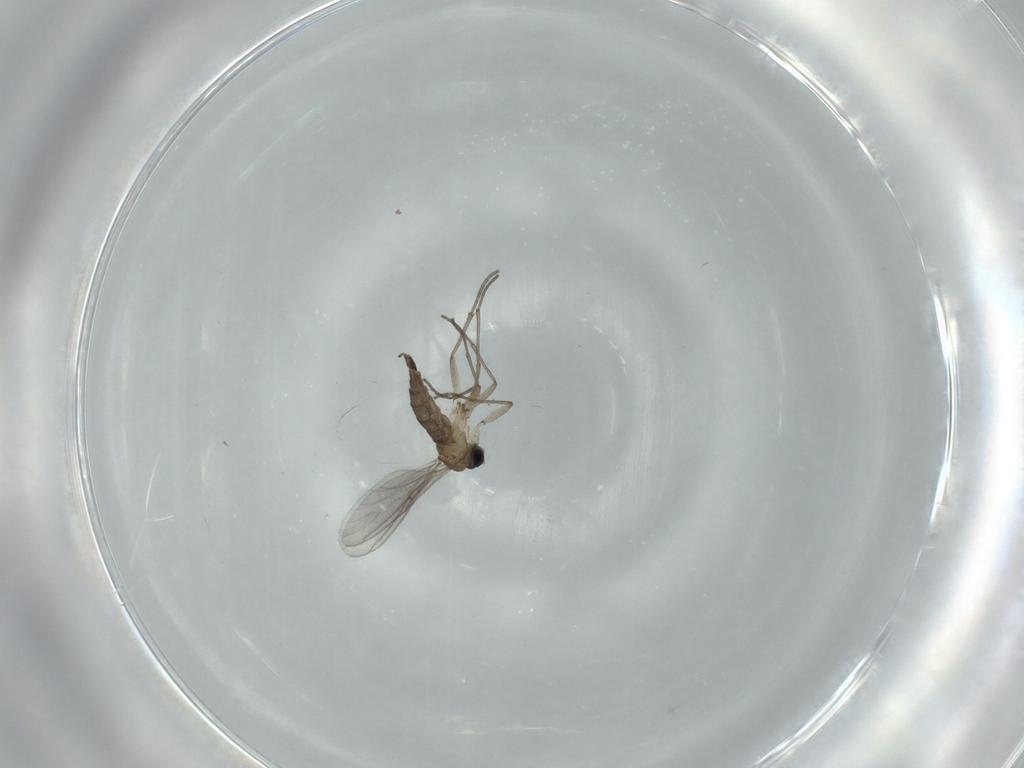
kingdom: Animalia
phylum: Arthropoda
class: Insecta
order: Diptera
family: Sciaridae
